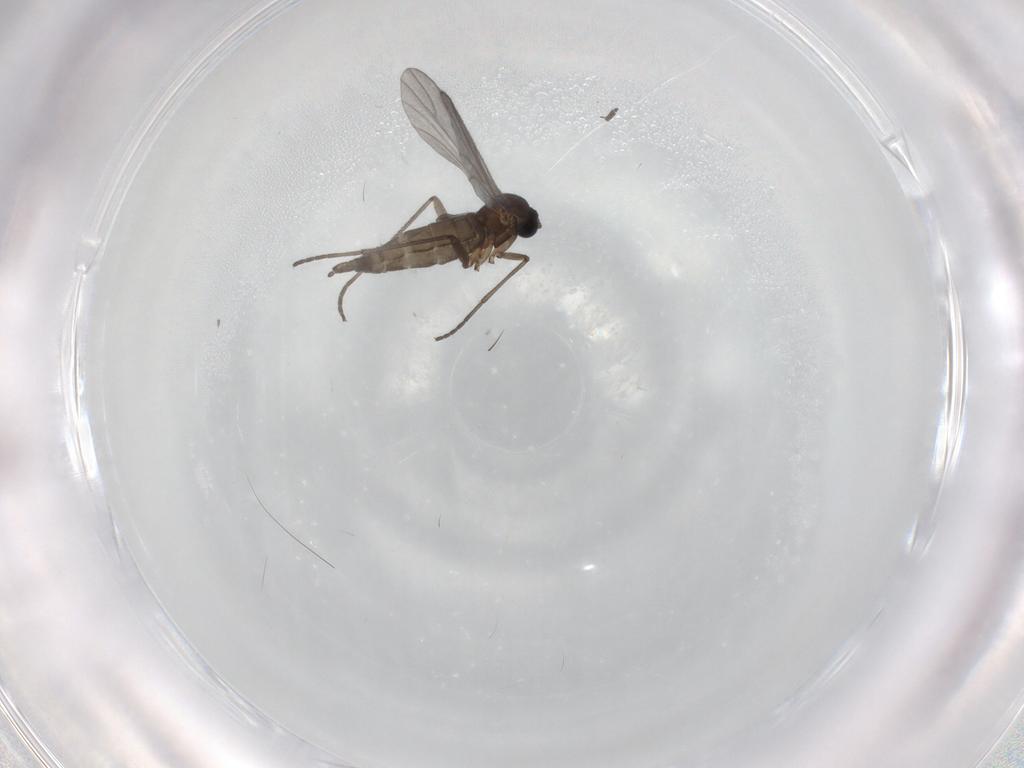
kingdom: Animalia
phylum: Arthropoda
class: Insecta
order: Diptera
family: Sciaridae
